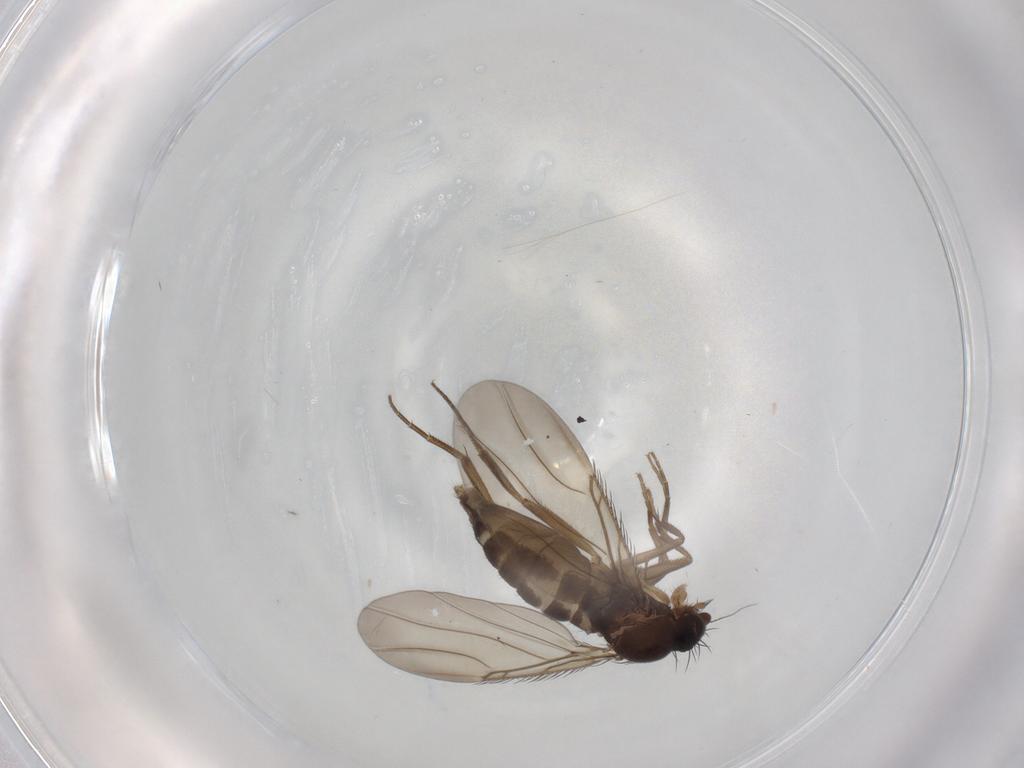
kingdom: Animalia
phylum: Arthropoda
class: Insecta
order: Diptera
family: Phoridae
